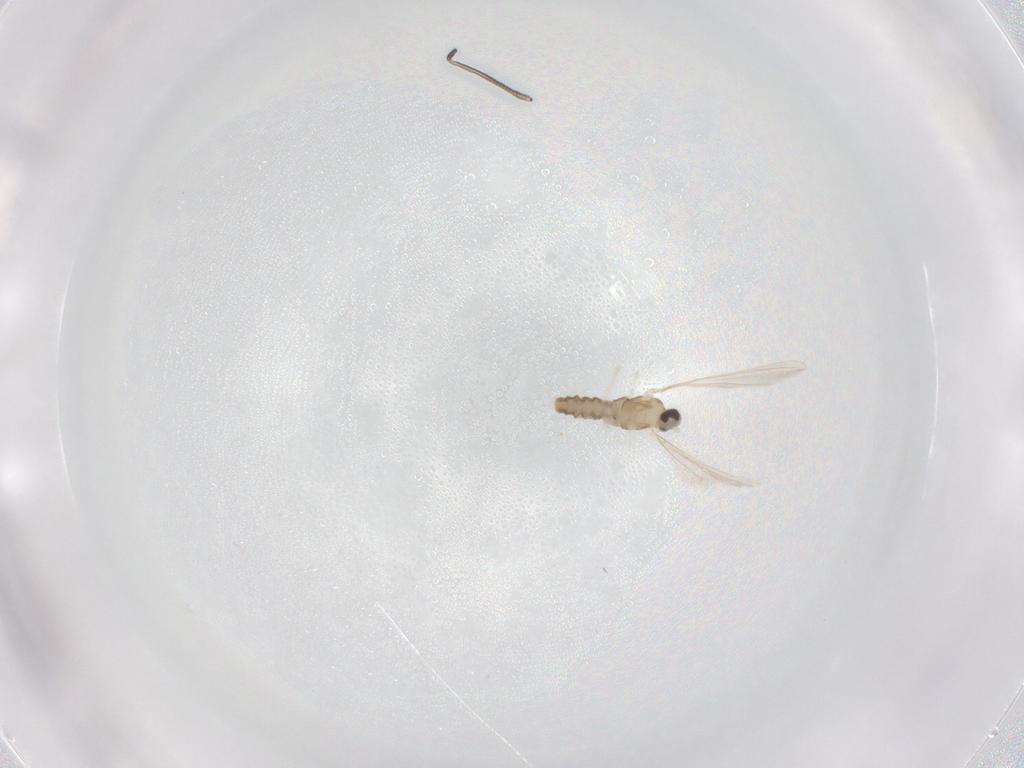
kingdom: Animalia
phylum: Arthropoda
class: Insecta
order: Diptera
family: Cecidomyiidae
